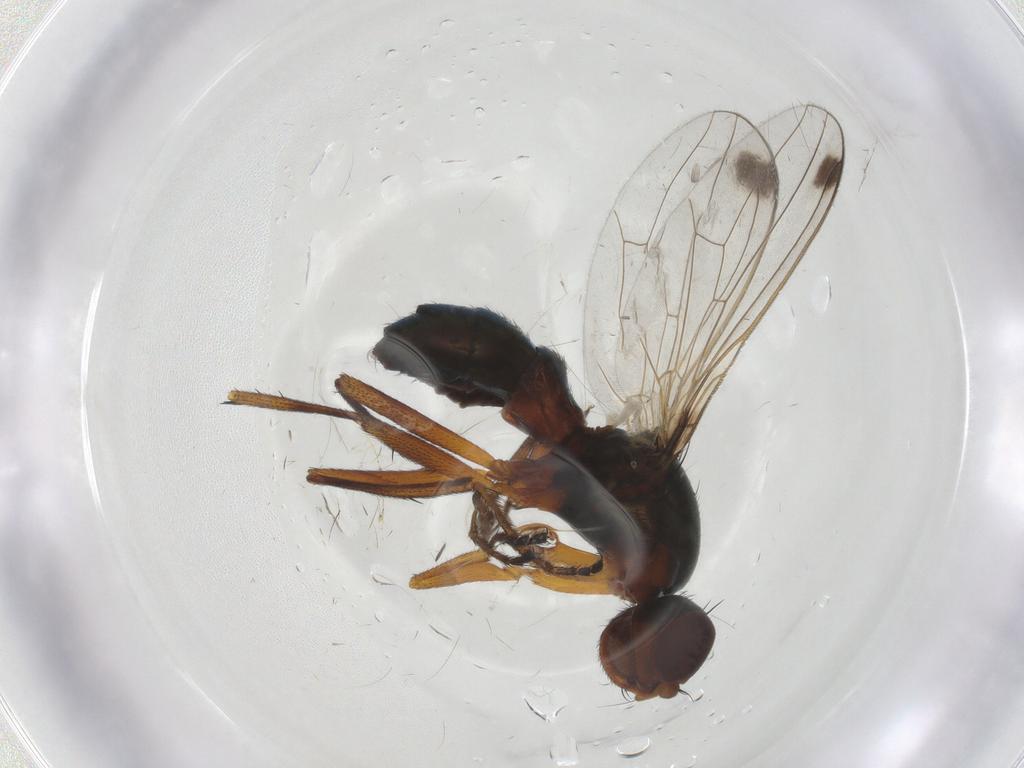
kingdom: Animalia
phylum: Arthropoda
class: Insecta
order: Diptera
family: Sepsidae
